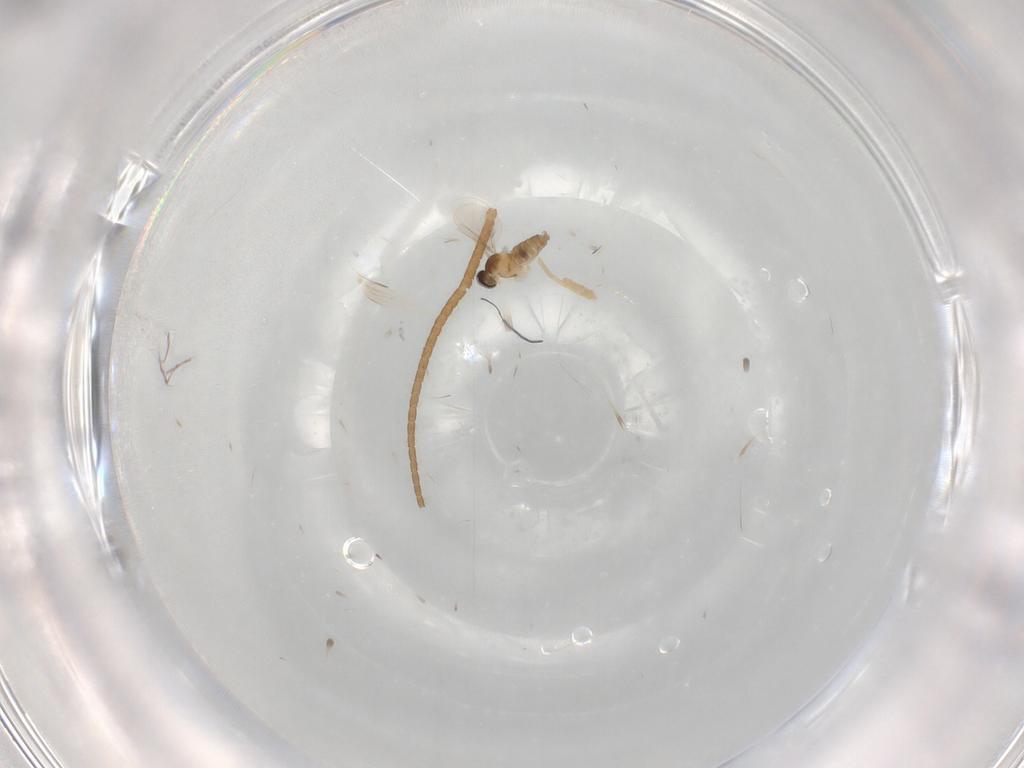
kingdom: Animalia
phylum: Arthropoda
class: Insecta
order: Diptera
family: Cecidomyiidae
